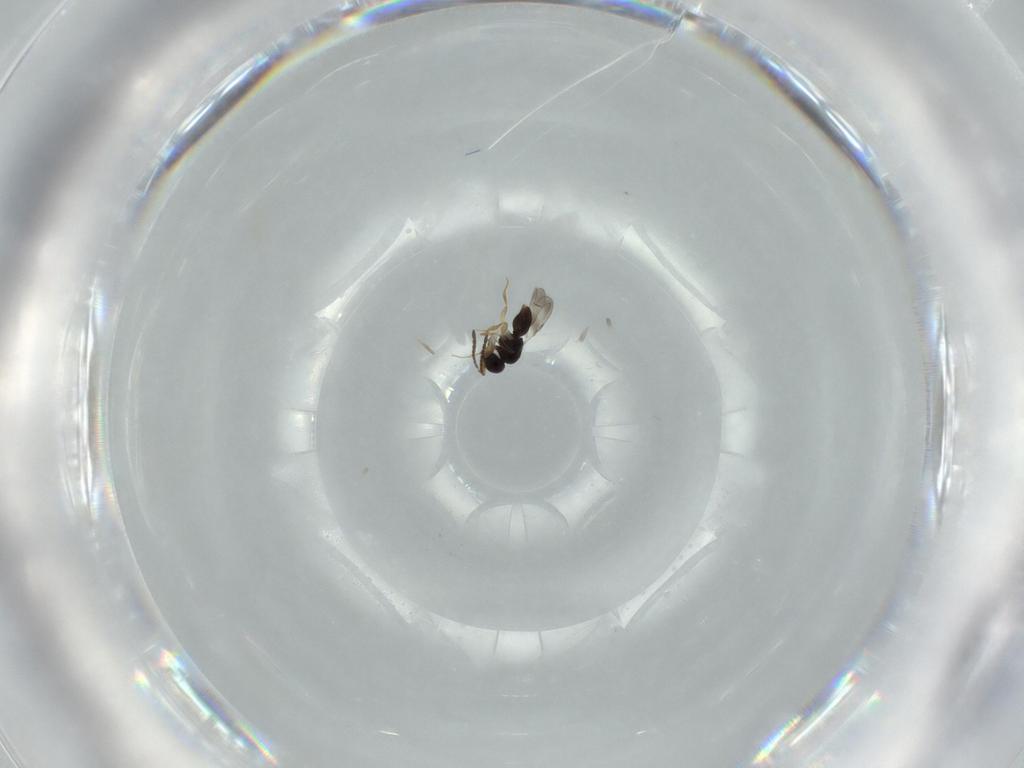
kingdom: Animalia
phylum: Arthropoda
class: Insecta
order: Hymenoptera
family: Ceraphronidae
